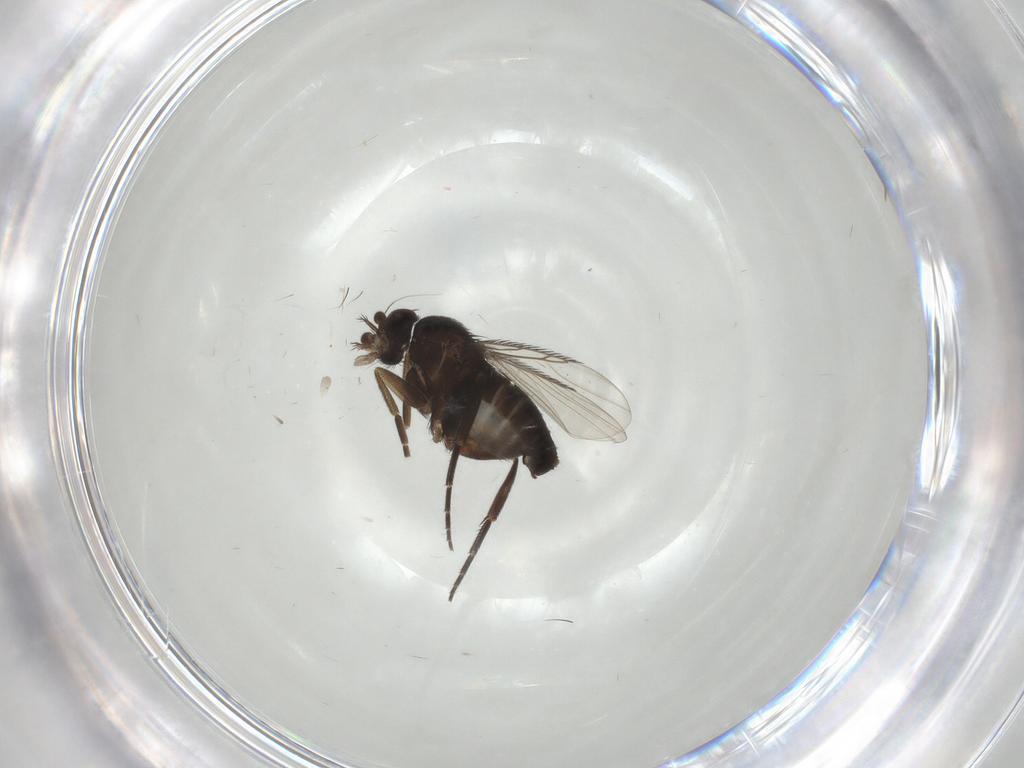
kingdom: Animalia
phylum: Arthropoda
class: Insecta
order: Diptera
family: Phoridae
